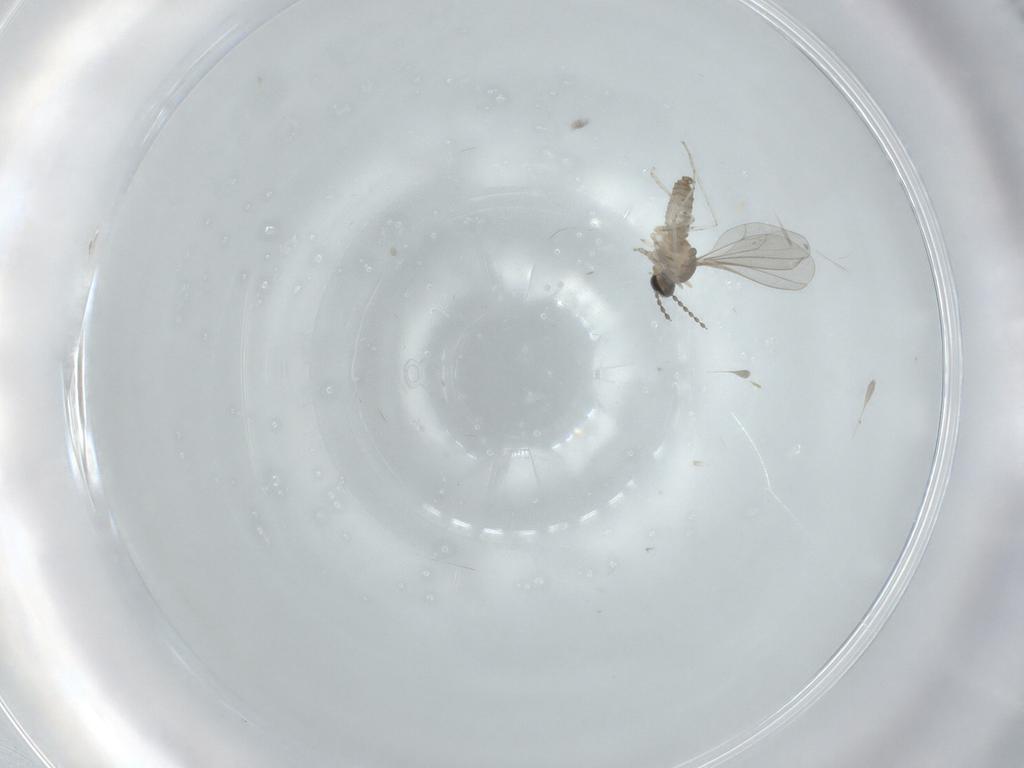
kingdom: Animalia
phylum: Arthropoda
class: Insecta
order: Diptera
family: Cecidomyiidae
